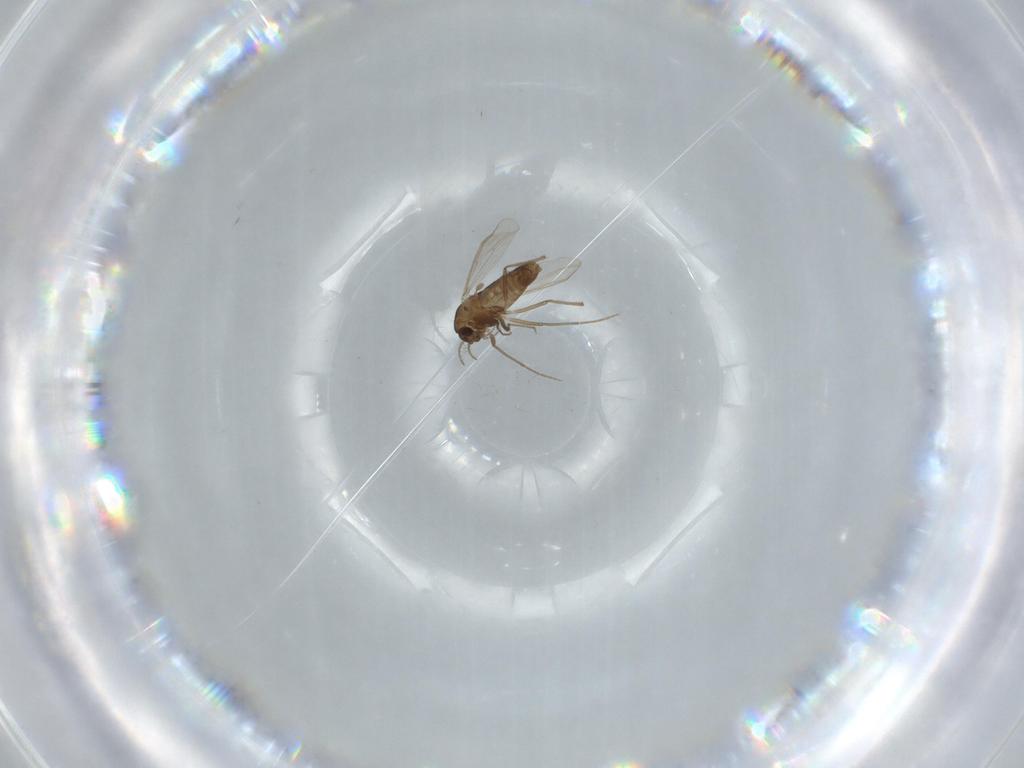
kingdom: Animalia
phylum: Arthropoda
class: Insecta
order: Diptera
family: Chironomidae
